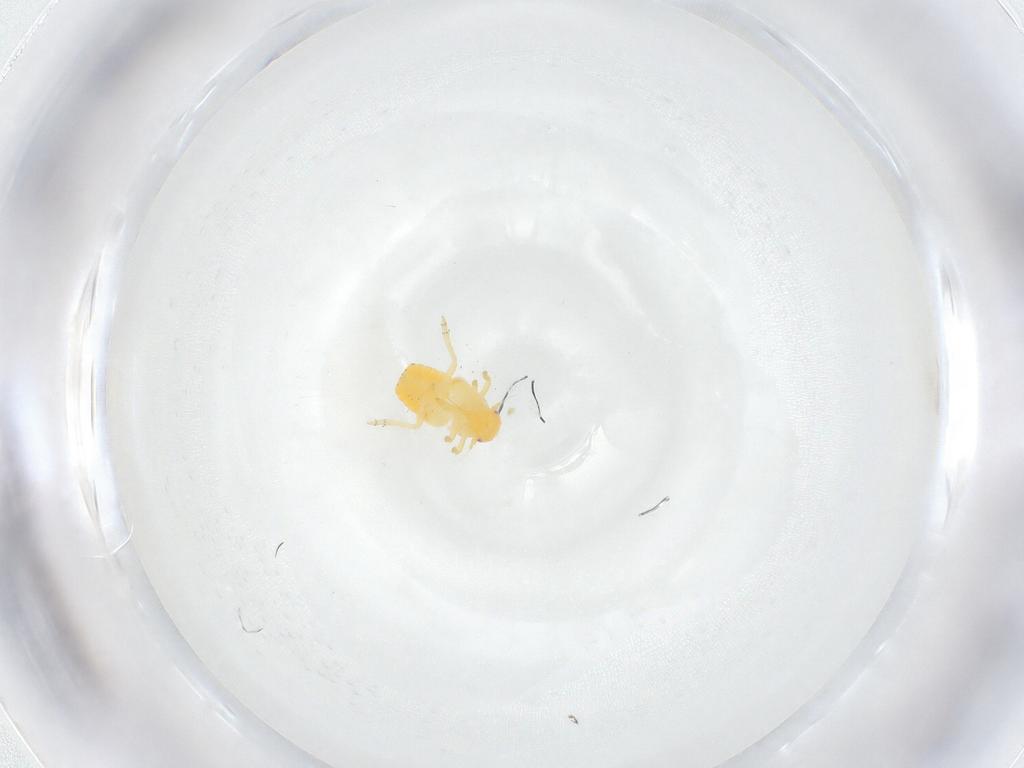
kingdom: Animalia
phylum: Arthropoda
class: Insecta
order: Hemiptera
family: Flatidae
